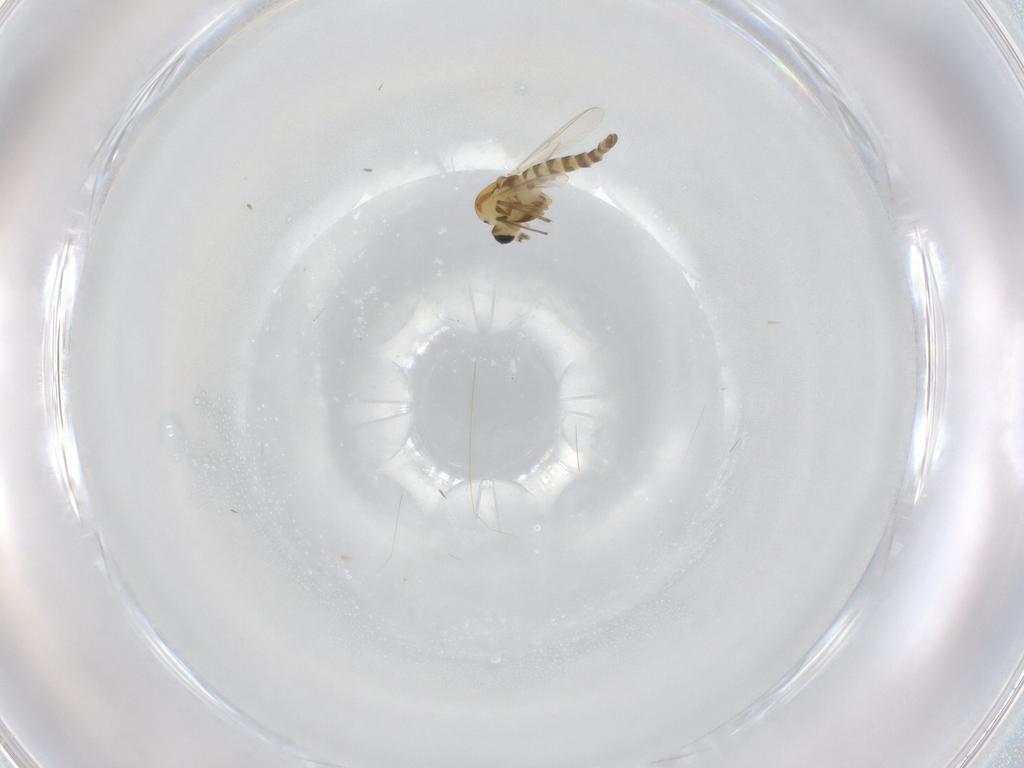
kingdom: Animalia
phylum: Arthropoda
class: Insecta
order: Diptera
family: Chironomidae
